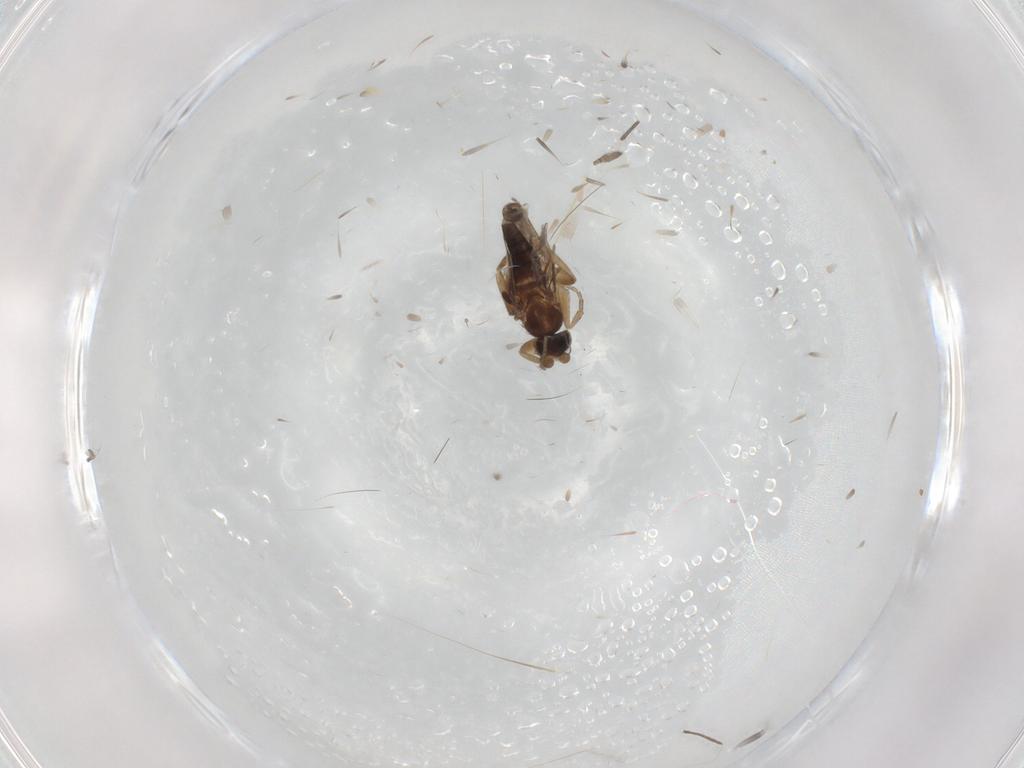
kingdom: Animalia
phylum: Arthropoda
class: Insecta
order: Diptera
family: Phoridae
